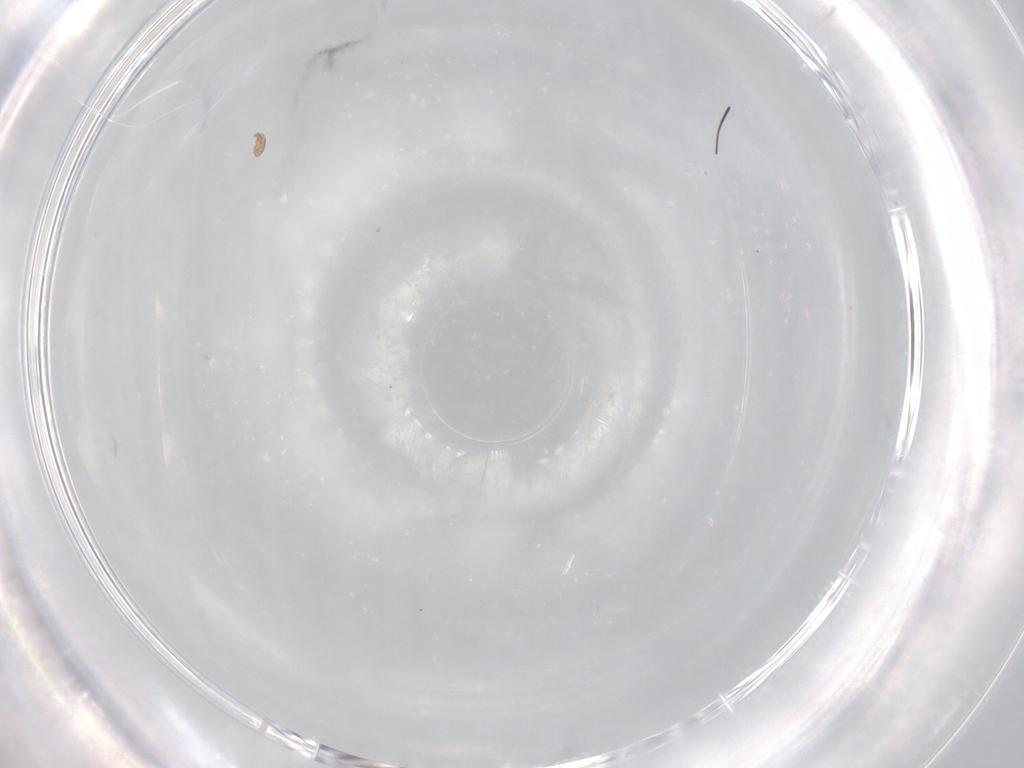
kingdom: Animalia
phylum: Arthropoda
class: Arachnida
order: Sarcoptiformes
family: Eremaeidae
